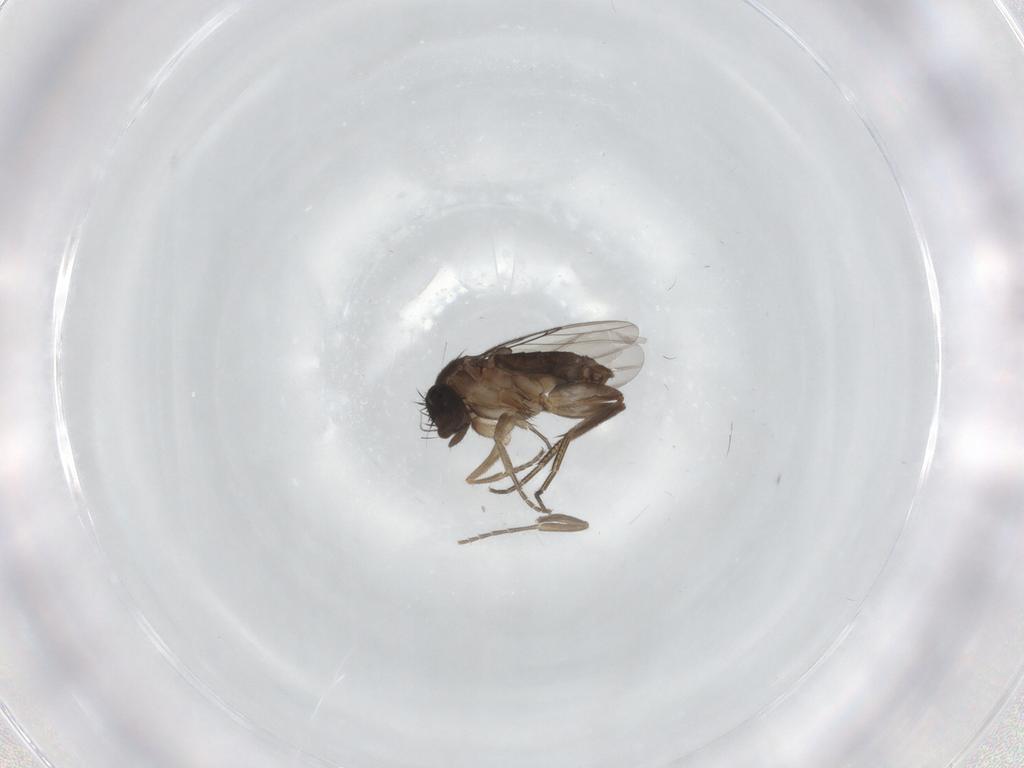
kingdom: Animalia
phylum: Arthropoda
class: Insecta
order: Diptera
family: Phoridae
